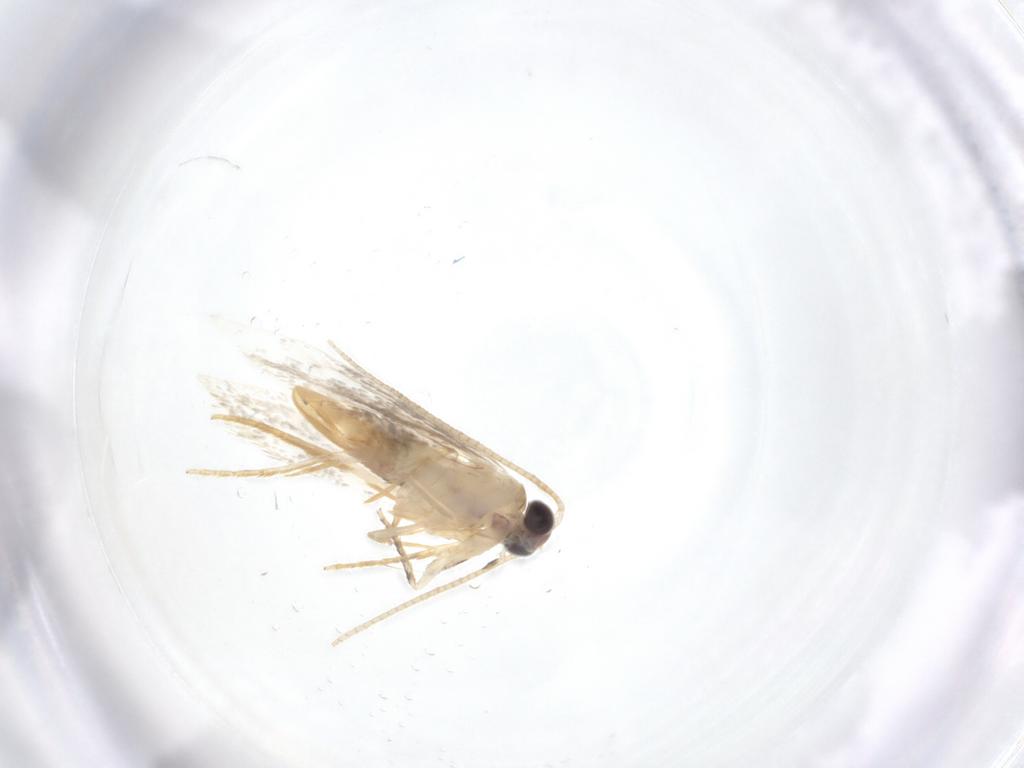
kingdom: Animalia
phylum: Arthropoda
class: Insecta
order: Lepidoptera
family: Nepticulidae
